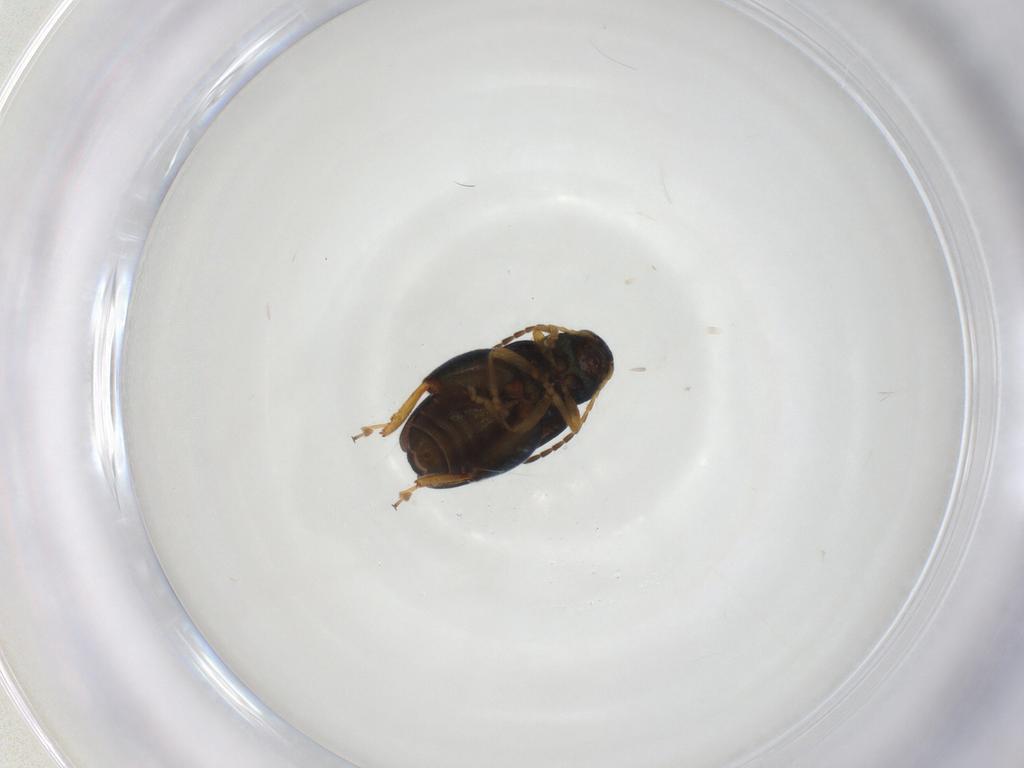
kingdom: Animalia
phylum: Arthropoda
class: Insecta
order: Coleoptera
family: Chrysomelidae
